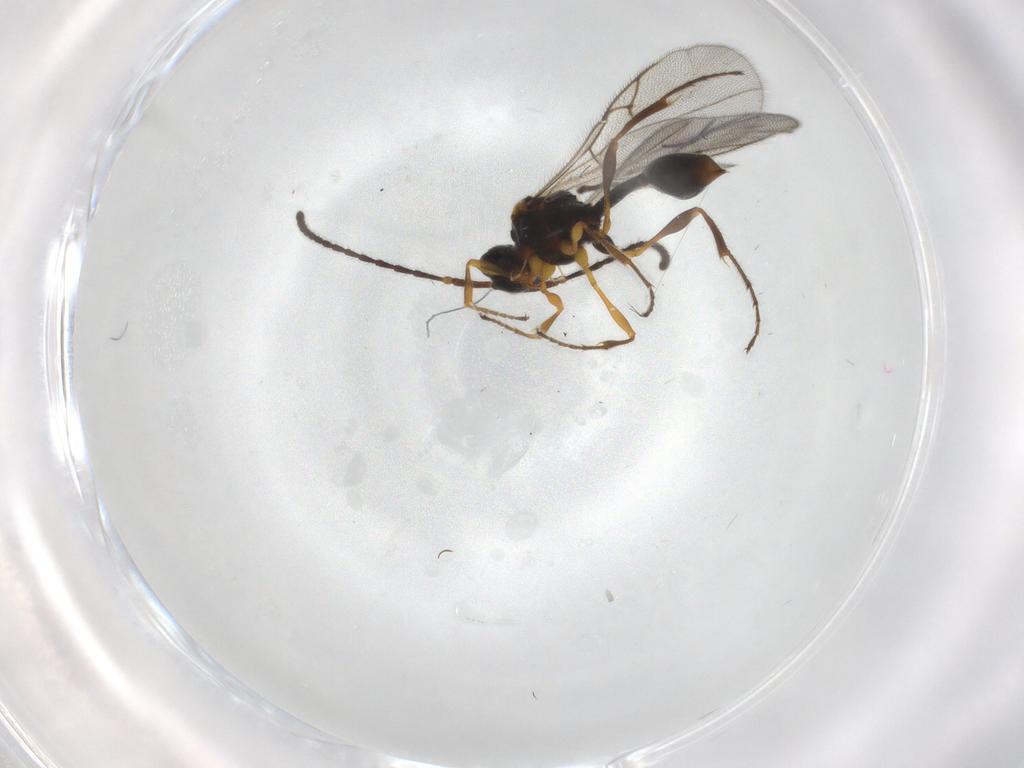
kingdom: Animalia
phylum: Arthropoda
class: Insecta
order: Hymenoptera
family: Diapriidae
